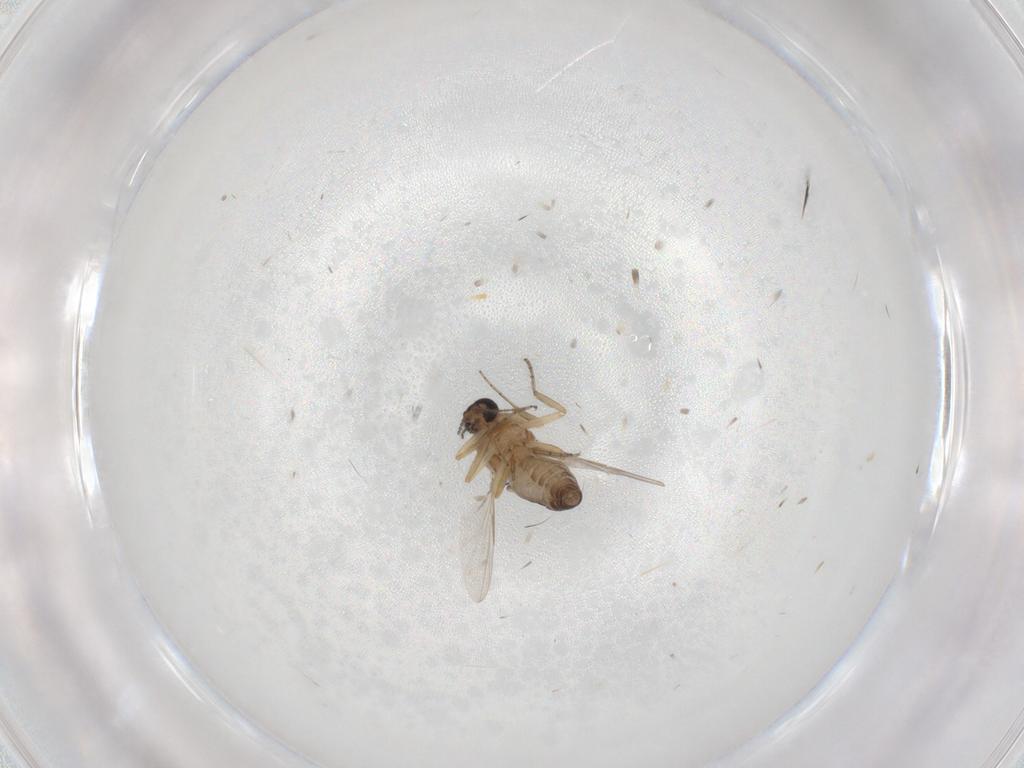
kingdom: Animalia
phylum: Arthropoda
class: Insecta
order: Diptera
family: Ceratopogonidae
